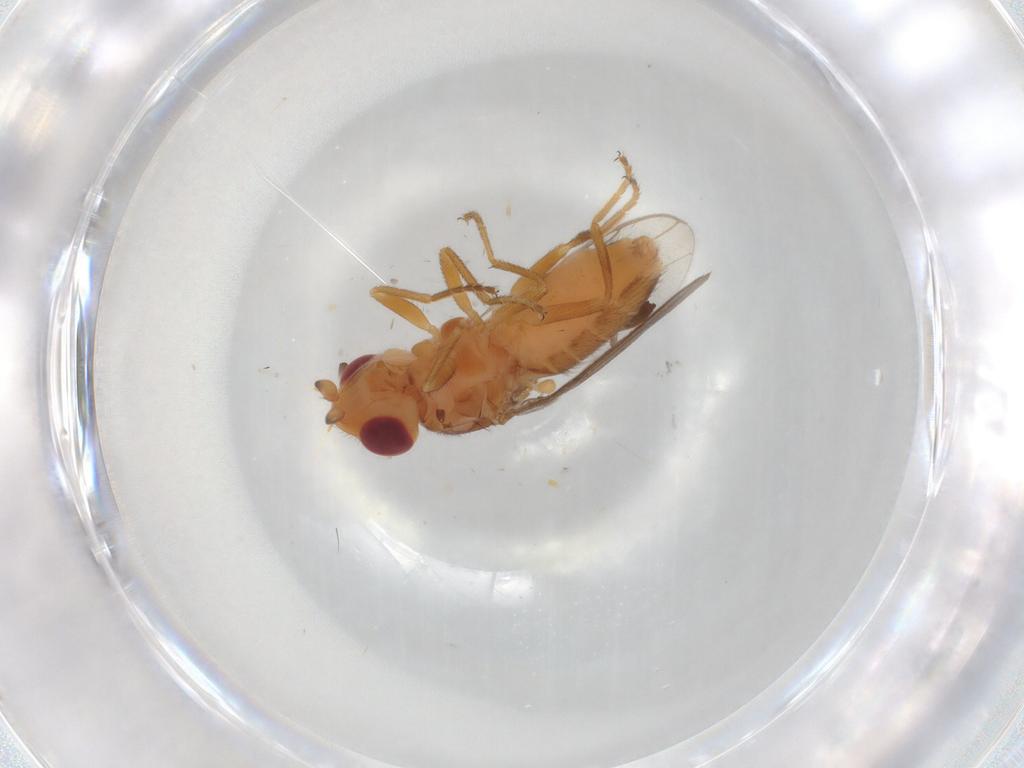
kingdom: Animalia
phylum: Arthropoda
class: Insecta
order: Diptera
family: Chloropidae
